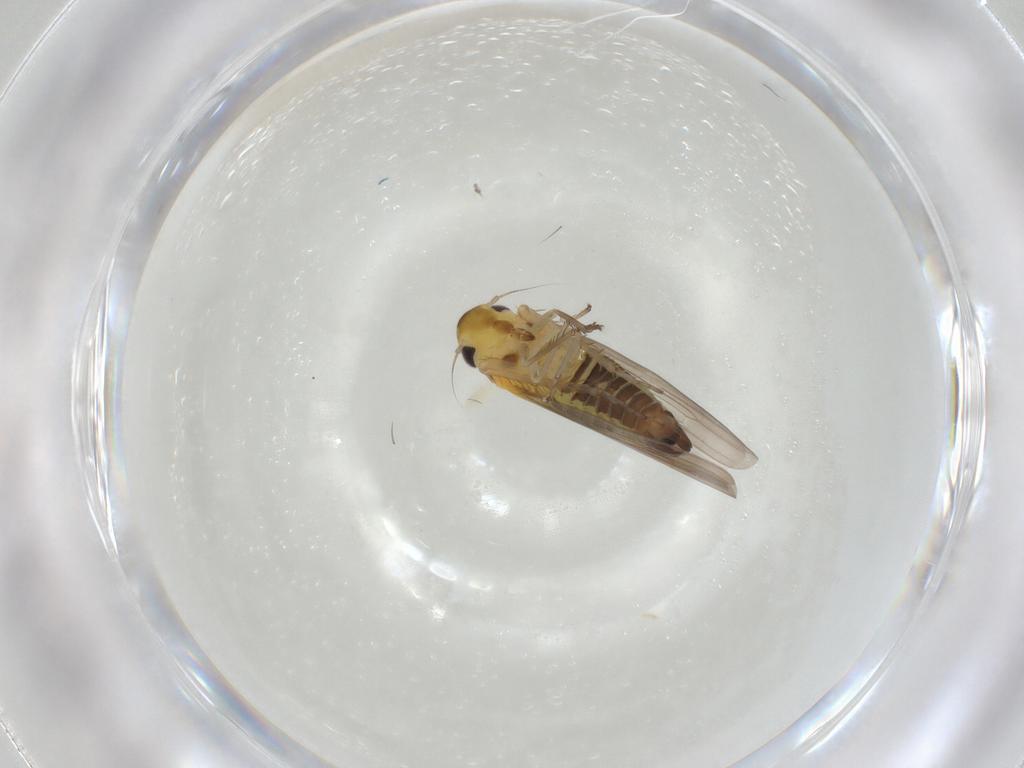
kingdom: Animalia
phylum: Arthropoda
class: Insecta
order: Hemiptera
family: Cicadellidae
